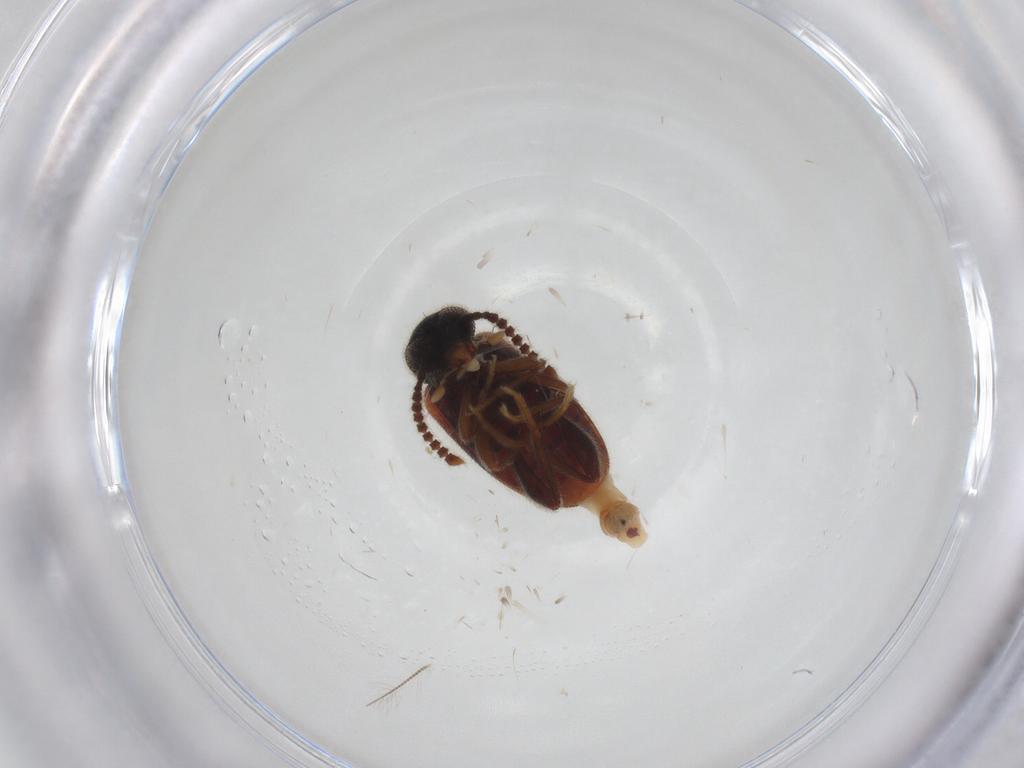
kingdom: Animalia
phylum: Arthropoda
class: Insecta
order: Coleoptera
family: Aderidae
